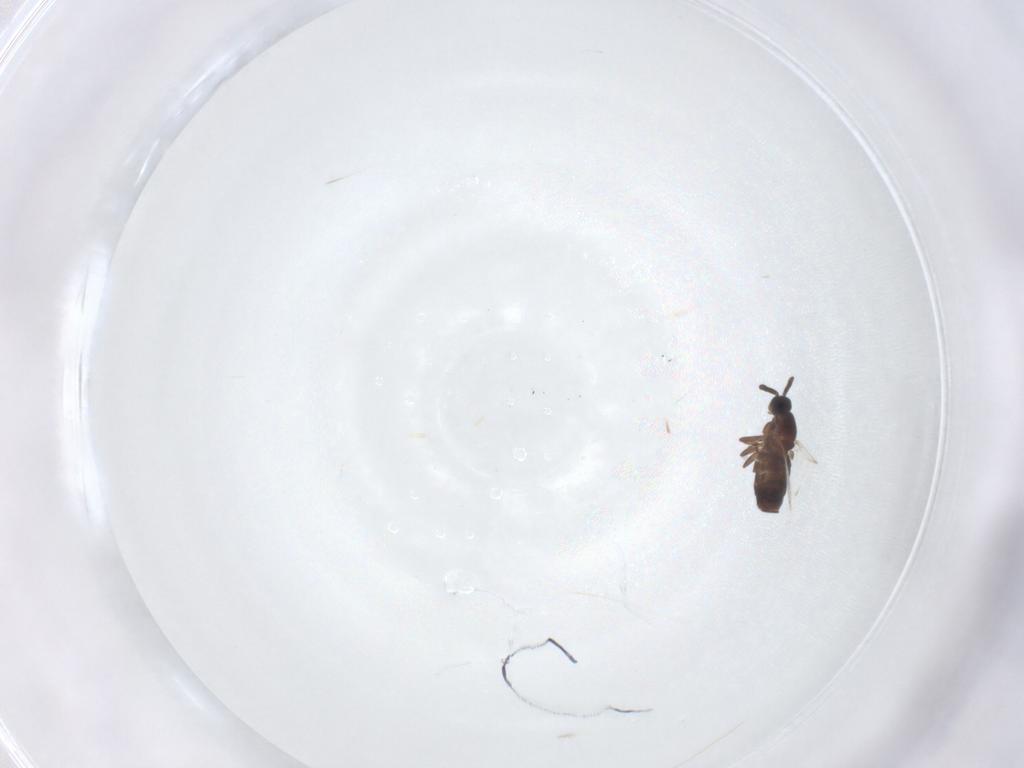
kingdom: Animalia
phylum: Arthropoda
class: Insecta
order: Diptera
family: Scatopsidae
